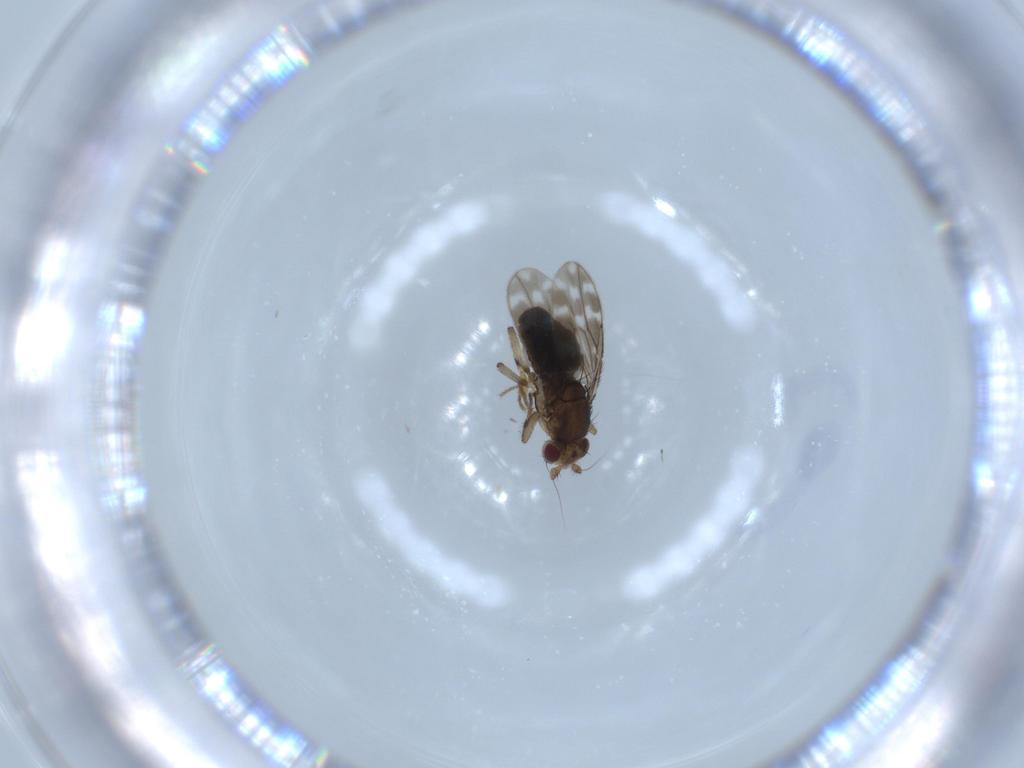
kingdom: Animalia
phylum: Arthropoda
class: Insecta
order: Diptera
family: Sphaeroceridae
